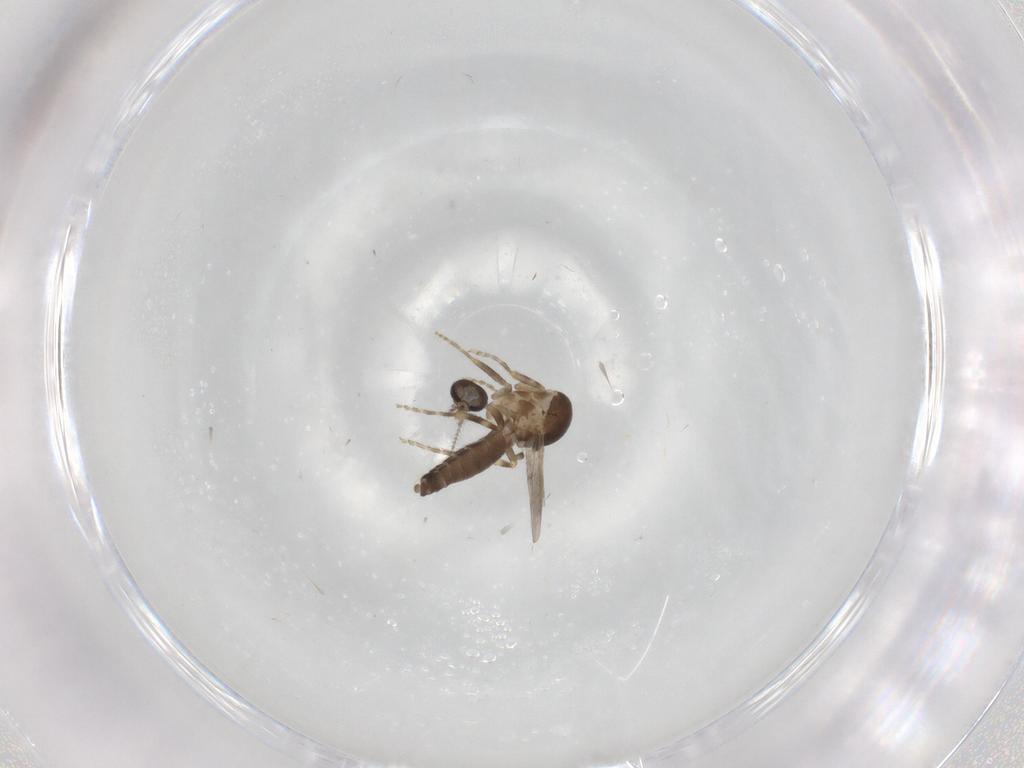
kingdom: Animalia
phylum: Arthropoda
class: Insecta
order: Diptera
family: Ceratopogonidae
